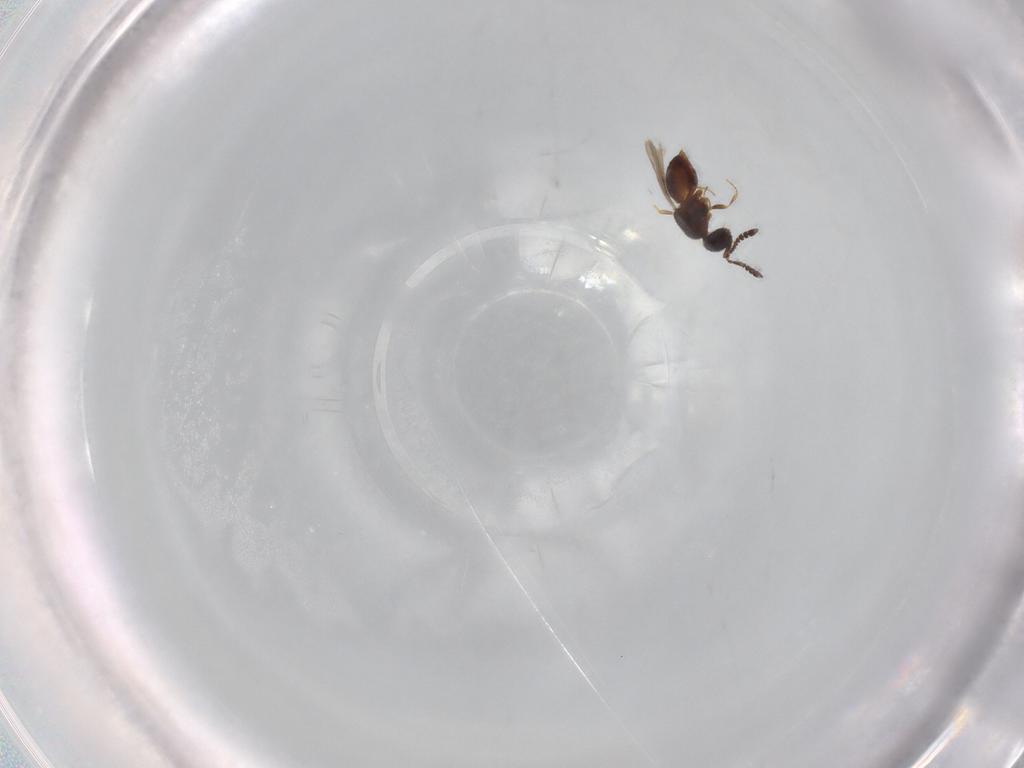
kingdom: Animalia
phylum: Arthropoda
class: Insecta
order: Hymenoptera
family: Ceraphronidae
